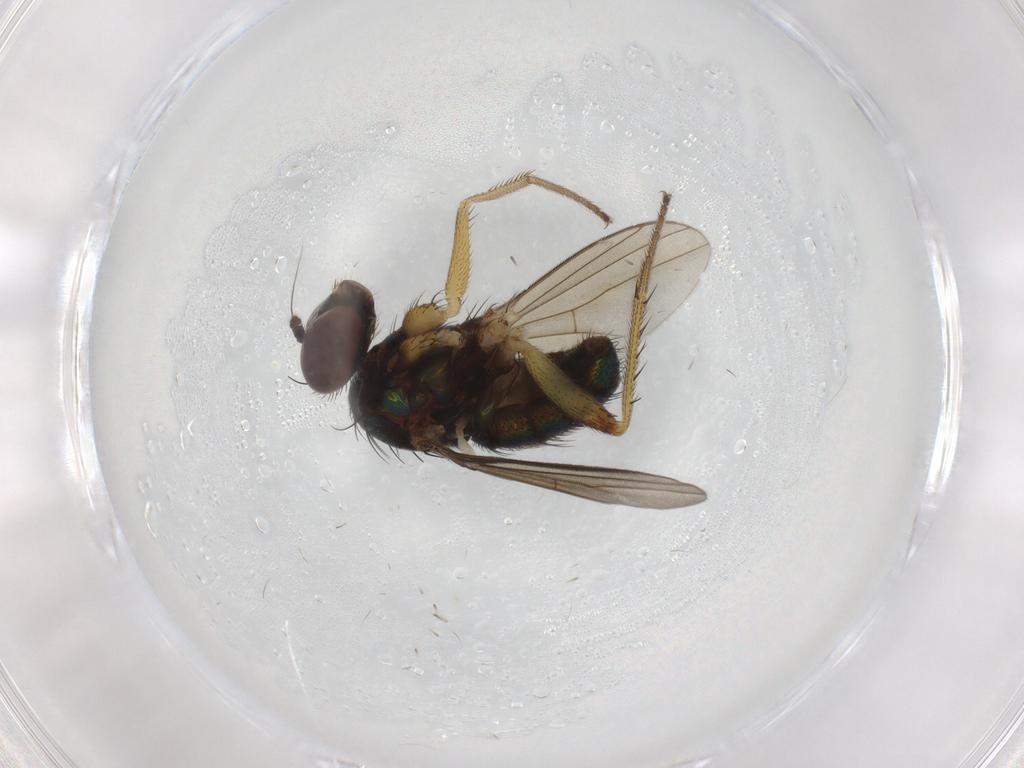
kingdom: Animalia
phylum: Arthropoda
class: Insecta
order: Diptera
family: Dolichopodidae
